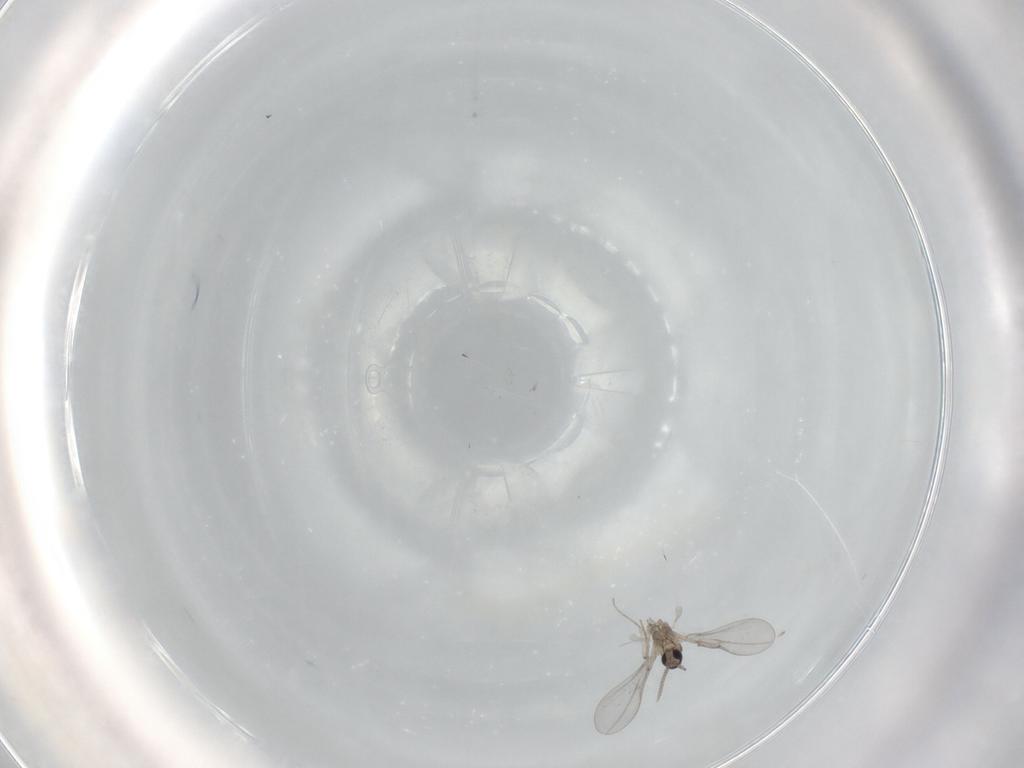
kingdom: Animalia
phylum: Arthropoda
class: Insecta
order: Diptera
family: Cecidomyiidae
